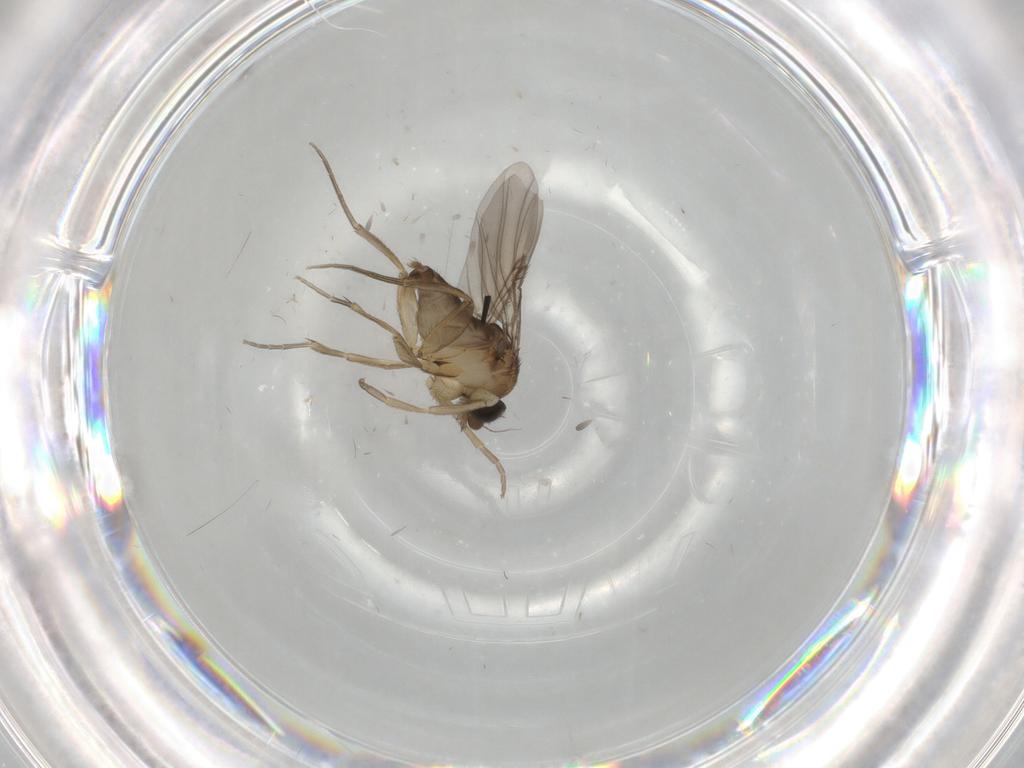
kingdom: Animalia
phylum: Arthropoda
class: Insecta
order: Diptera
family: Phoridae
